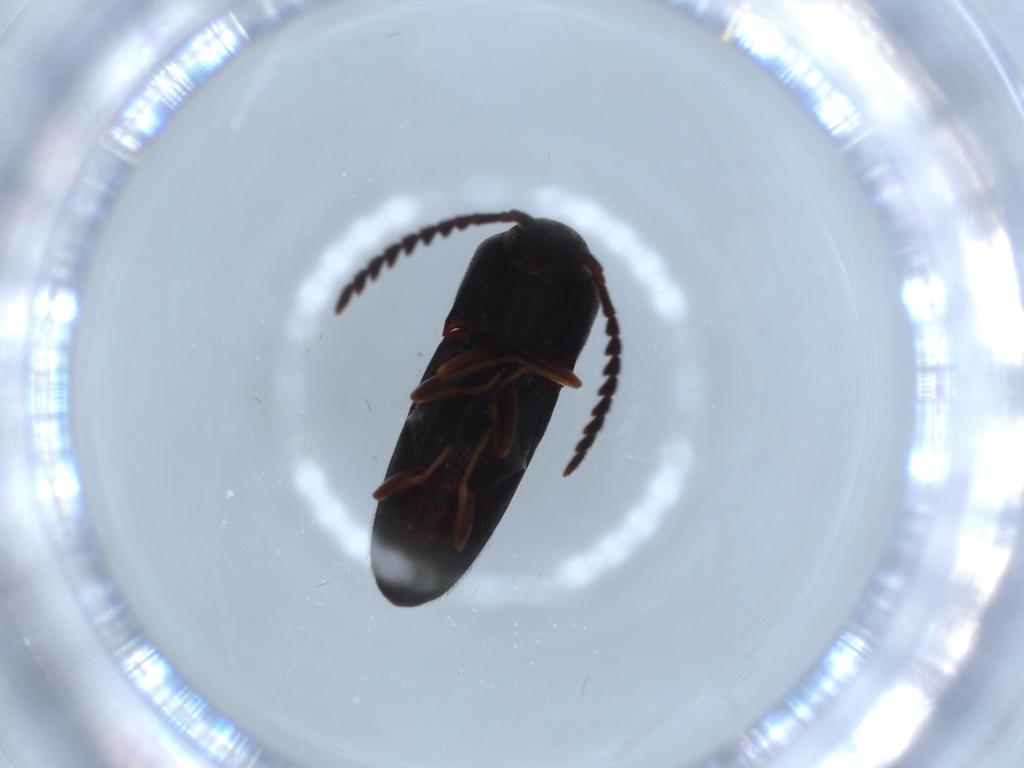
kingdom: Animalia
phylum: Arthropoda
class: Insecta
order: Coleoptera
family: Eucnemidae
